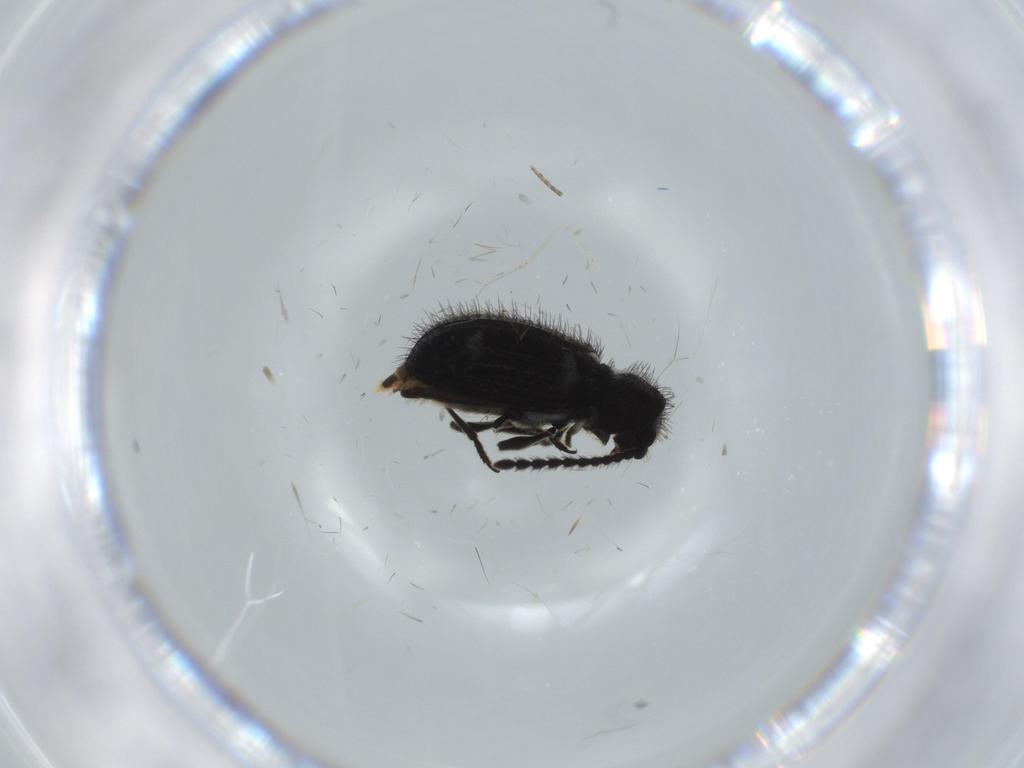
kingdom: Animalia
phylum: Arthropoda
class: Insecta
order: Coleoptera
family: Ptinidae
